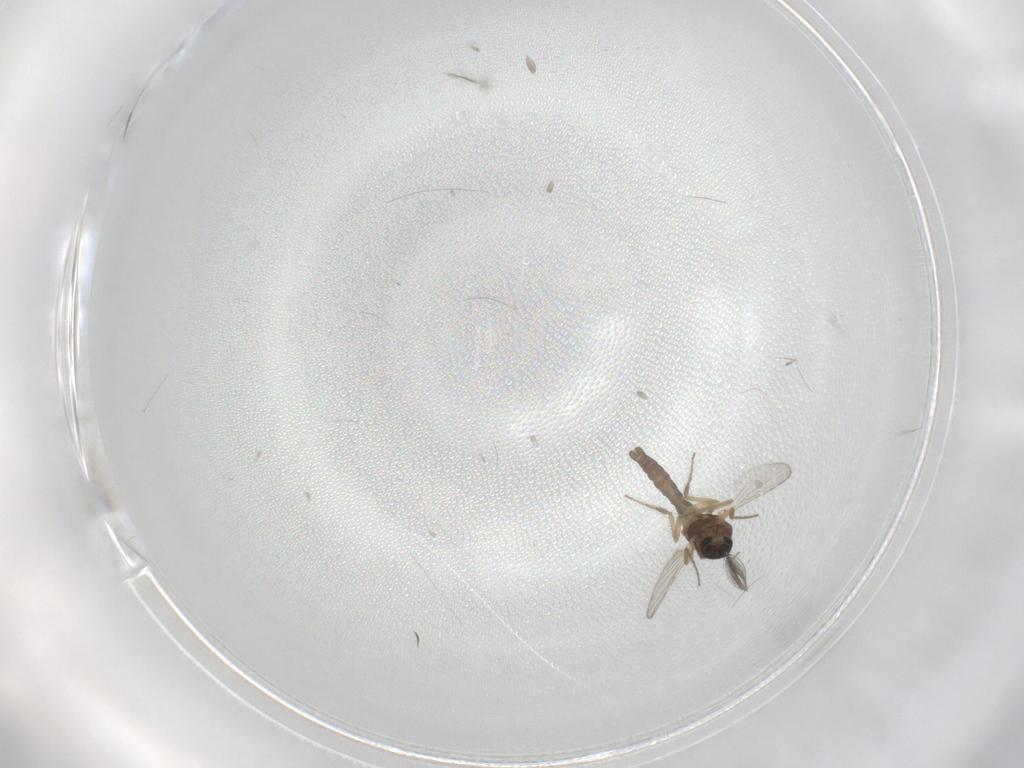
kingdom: Animalia
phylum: Arthropoda
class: Insecta
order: Diptera
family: Ceratopogonidae
